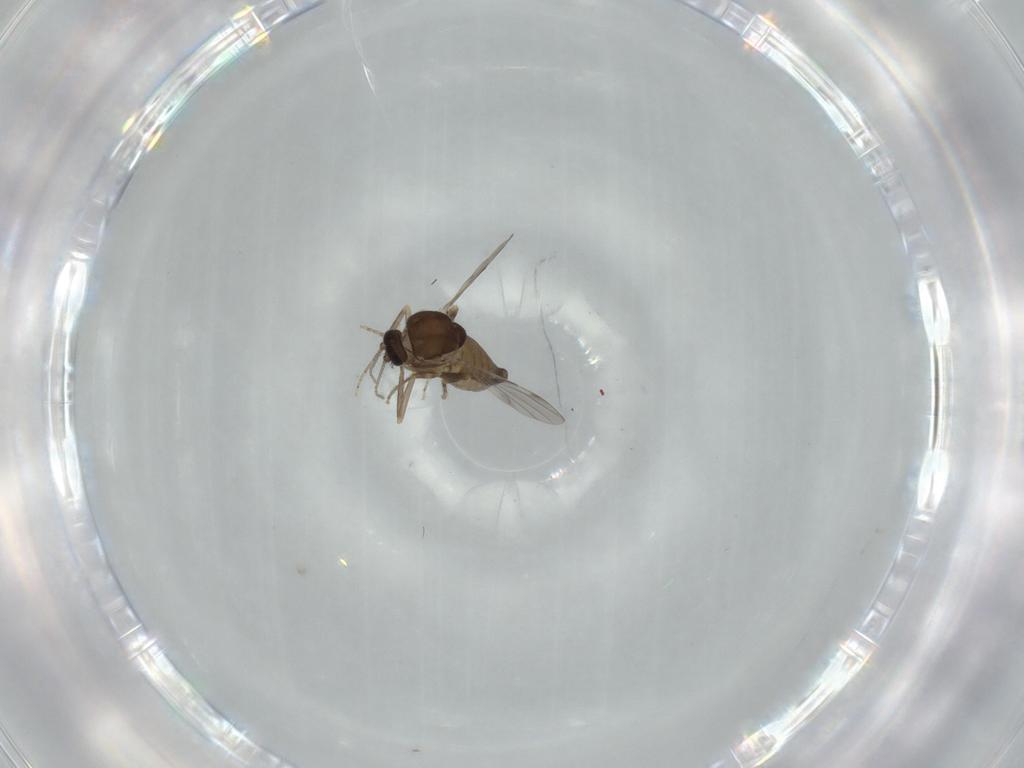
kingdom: Animalia
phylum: Arthropoda
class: Insecta
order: Diptera
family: Ceratopogonidae
